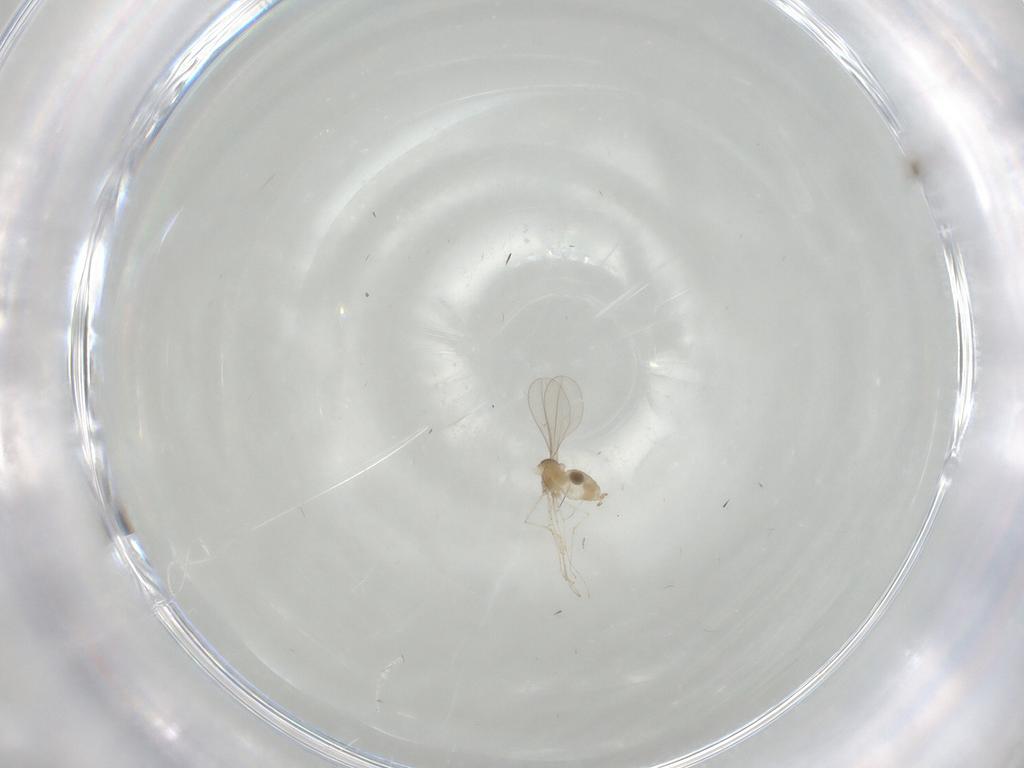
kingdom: Animalia
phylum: Arthropoda
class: Insecta
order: Diptera
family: Cecidomyiidae
